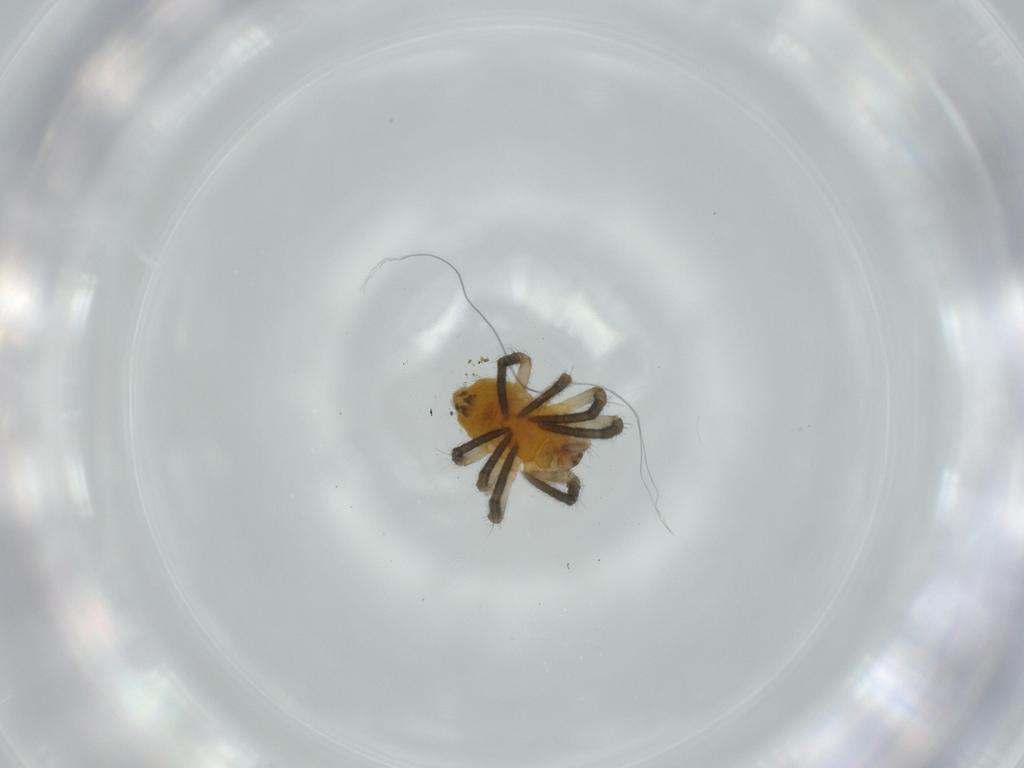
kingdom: Animalia
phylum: Arthropoda
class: Arachnida
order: Araneae
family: Araneidae
